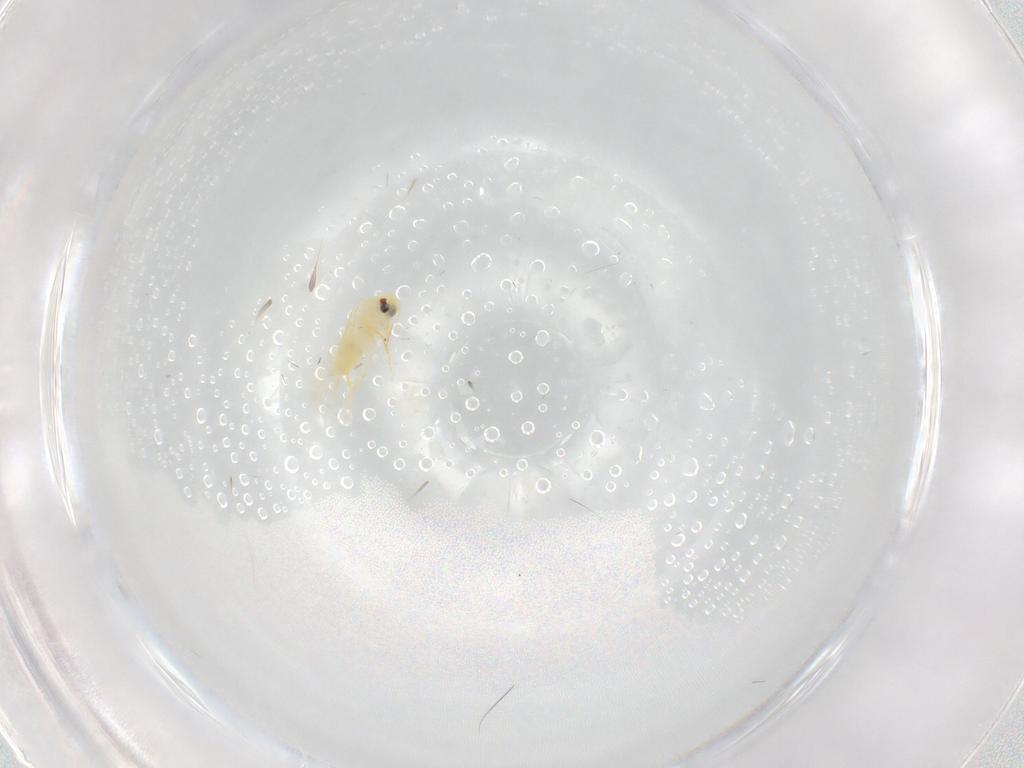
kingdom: Animalia
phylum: Arthropoda
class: Insecta
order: Hemiptera
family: Aleyrodidae
